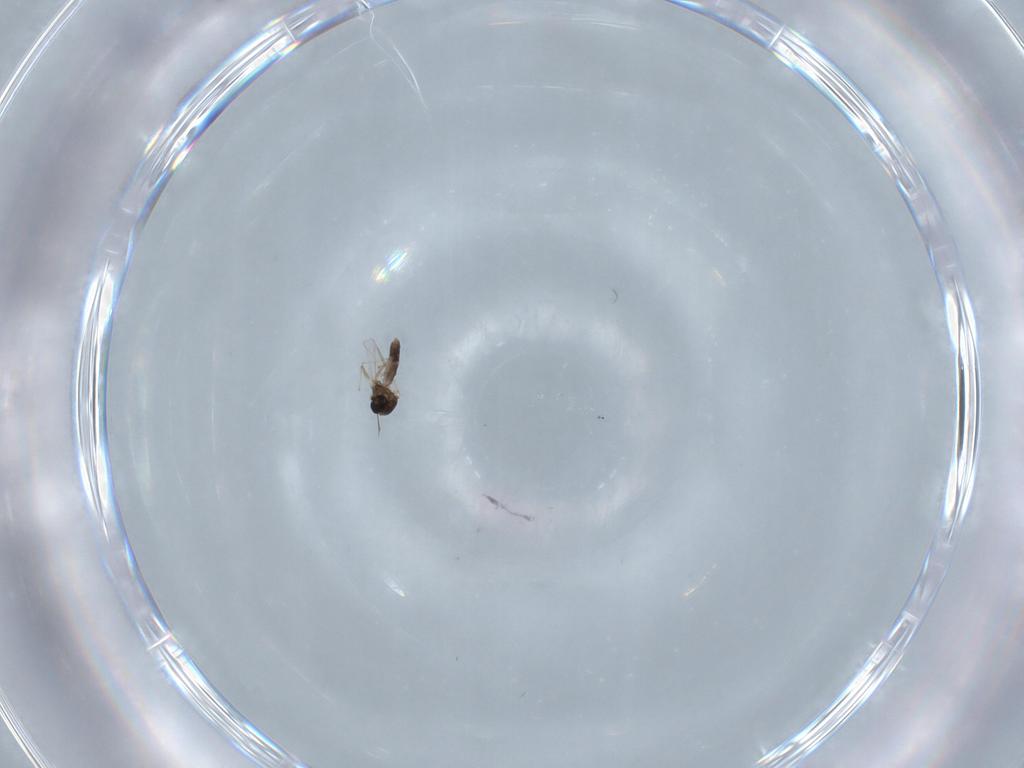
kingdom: Animalia
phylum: Arthropoda
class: Insecta
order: Diptera
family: Chironomidae
